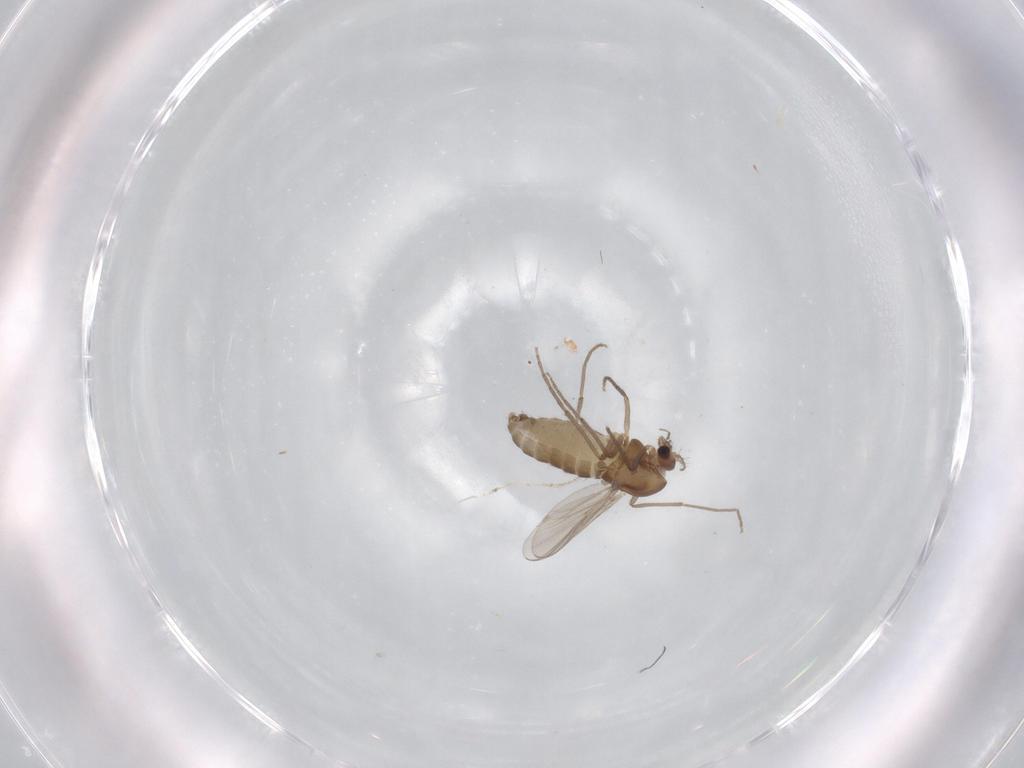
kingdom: Animalia
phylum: Arthropoda
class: Insecta
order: Diptera
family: Chironomidae
